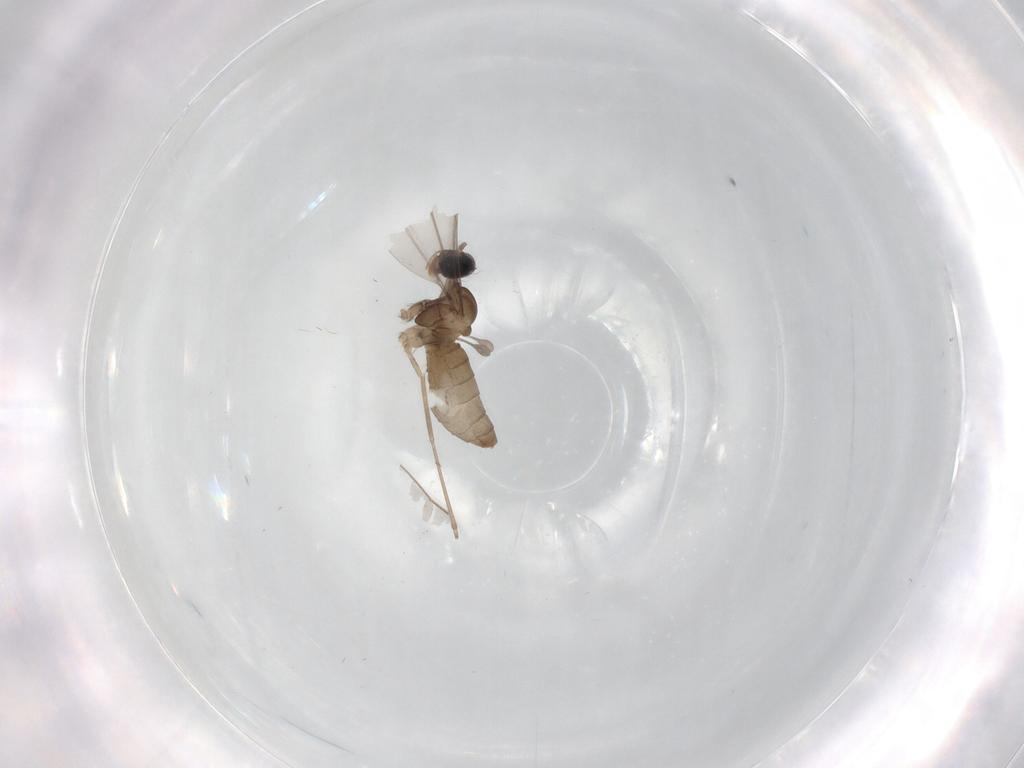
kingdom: Animalia
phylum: Arthropoda
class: Insecta
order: Diptera
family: Cecidomyiidae
